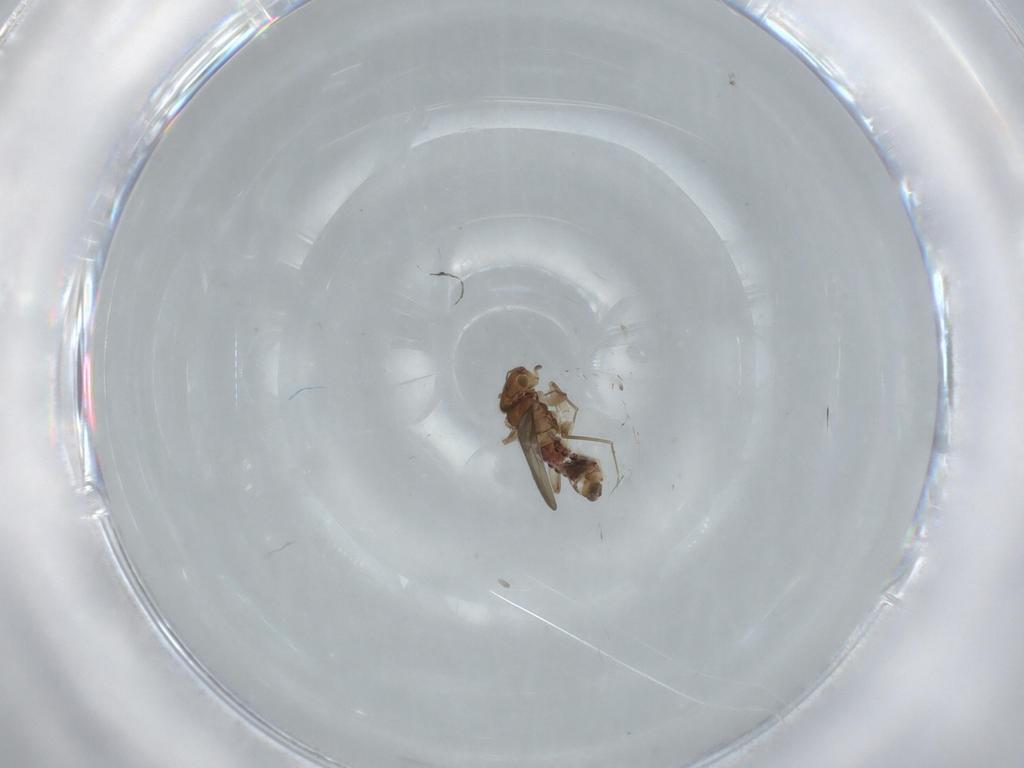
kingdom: Animalia
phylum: Arthropoda
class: Insecta
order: Psocodea
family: Lepidopsocidae
